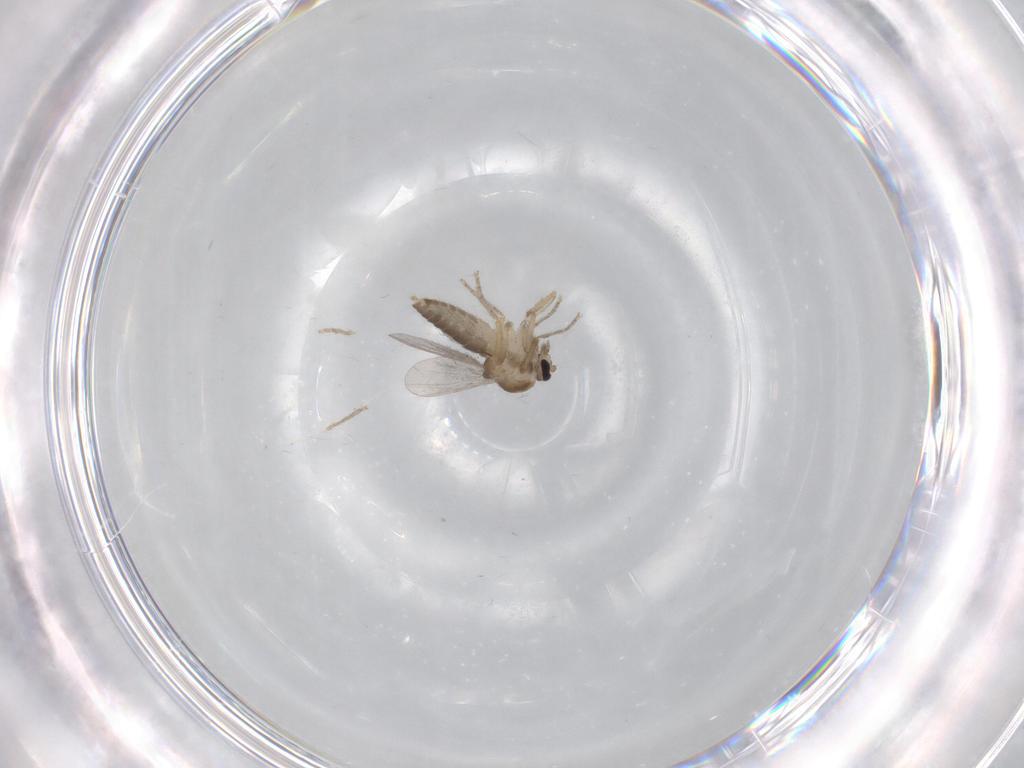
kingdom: Animalia
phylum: Arthropoda
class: Insecta
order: Diptera
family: Ceratopogonidae
